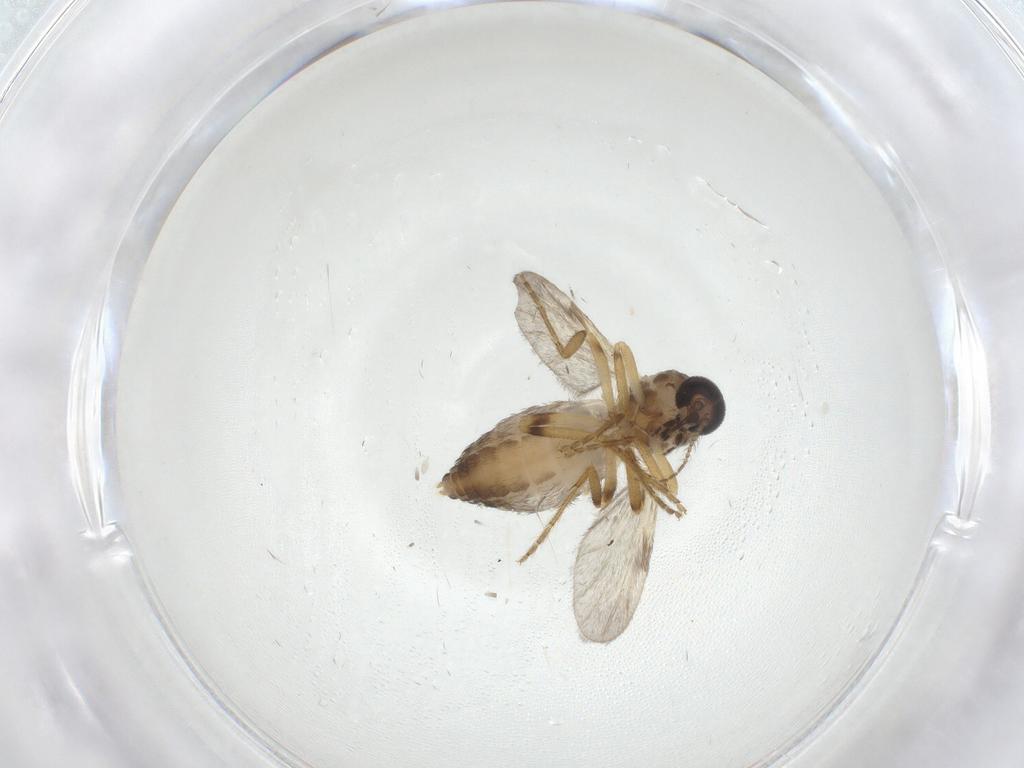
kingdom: Animalia
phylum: Arthropoda
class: Insecta
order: Diptera
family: Ceratopogonidae
